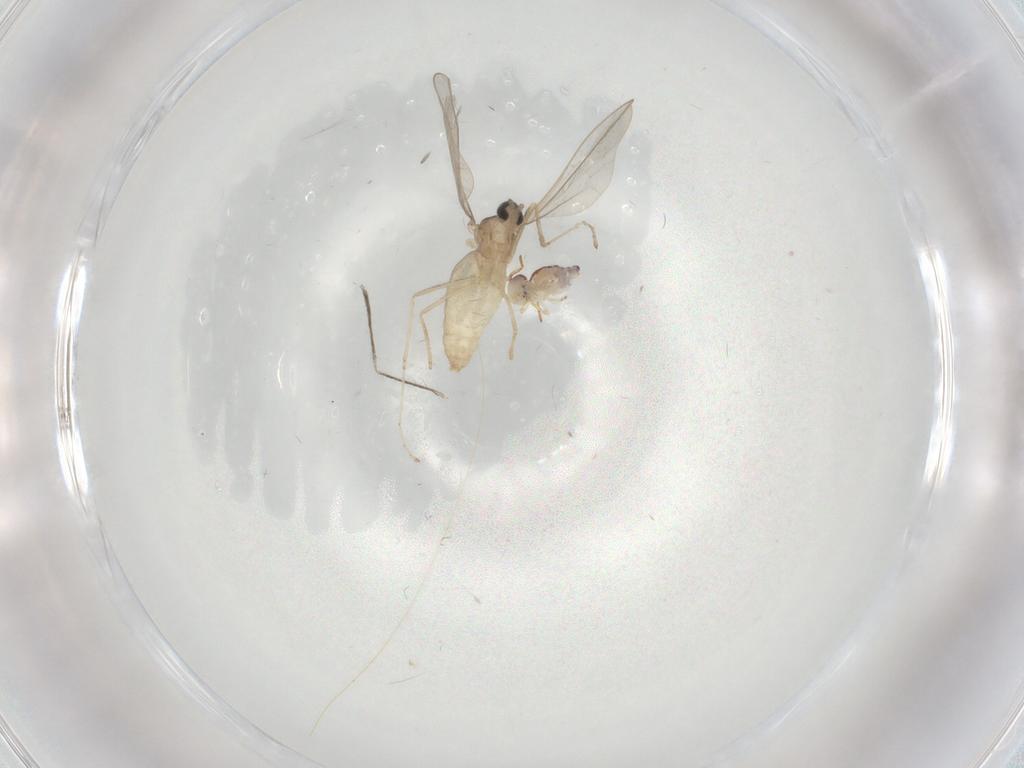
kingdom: Animalia
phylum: Arthropoda
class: Insecta
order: Diptera
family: Cecidomyiidae
